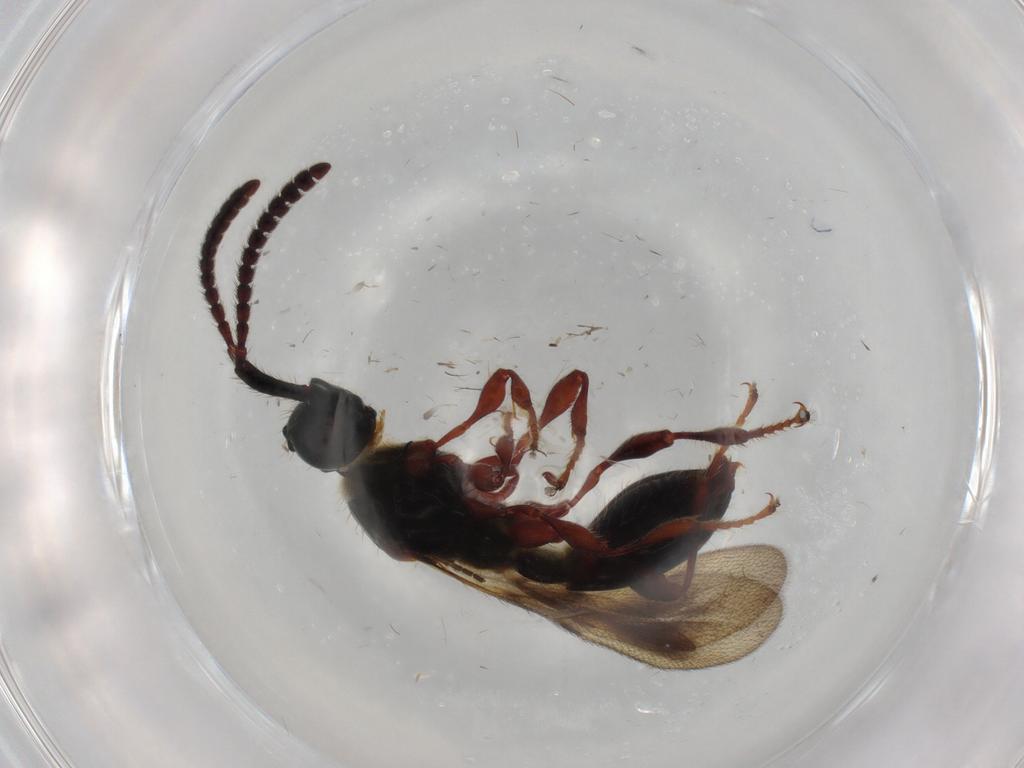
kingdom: Animalia
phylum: Arthropoda
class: Insecta
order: Hymenoptera
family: Diapriidae
